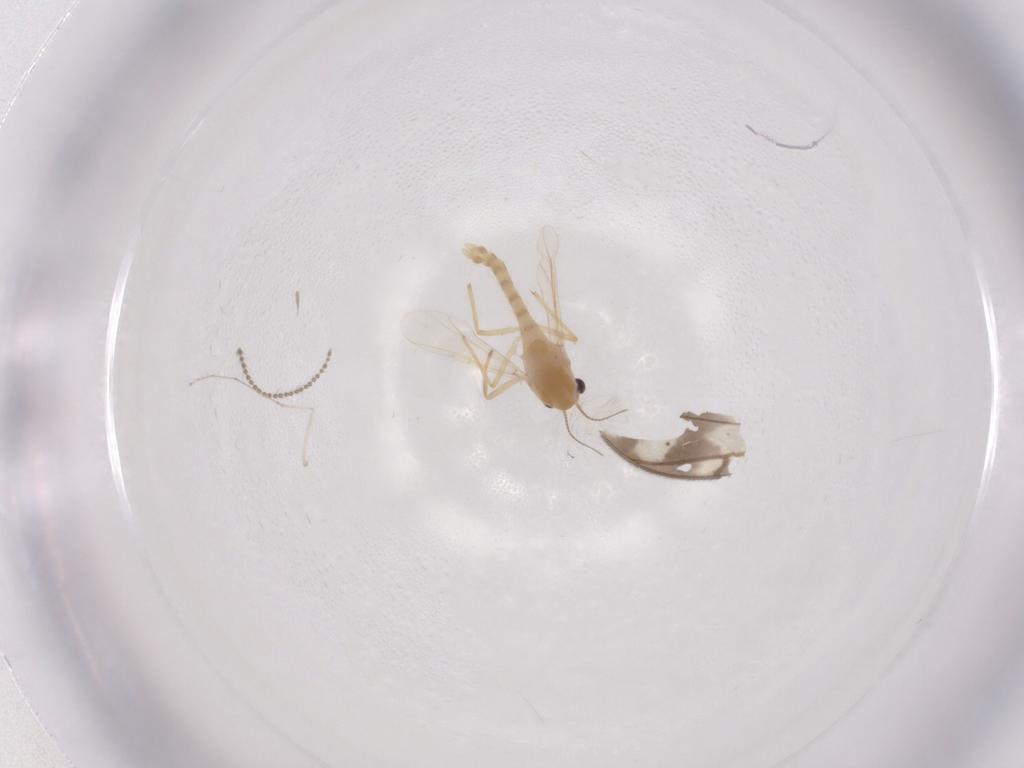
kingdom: Animalia
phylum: Arthropoda
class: Insecta
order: Diptera
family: Chironomidae
